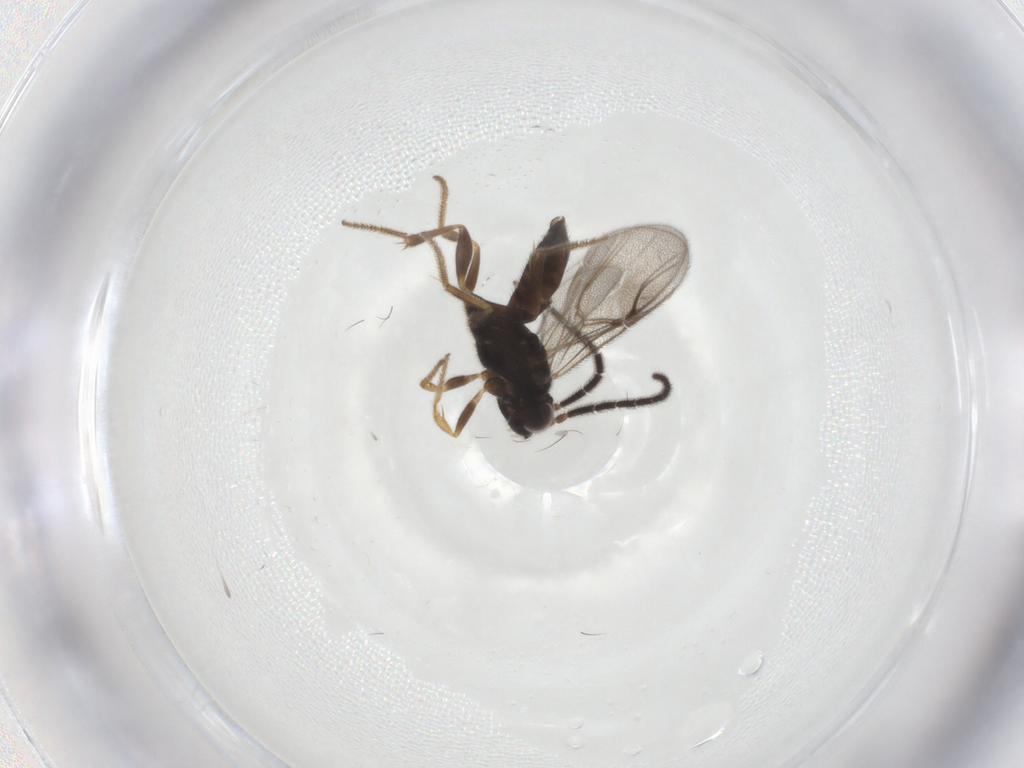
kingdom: Animalia
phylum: Arthropoda
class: Insecta
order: Hymenoptera
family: Dryinidae
